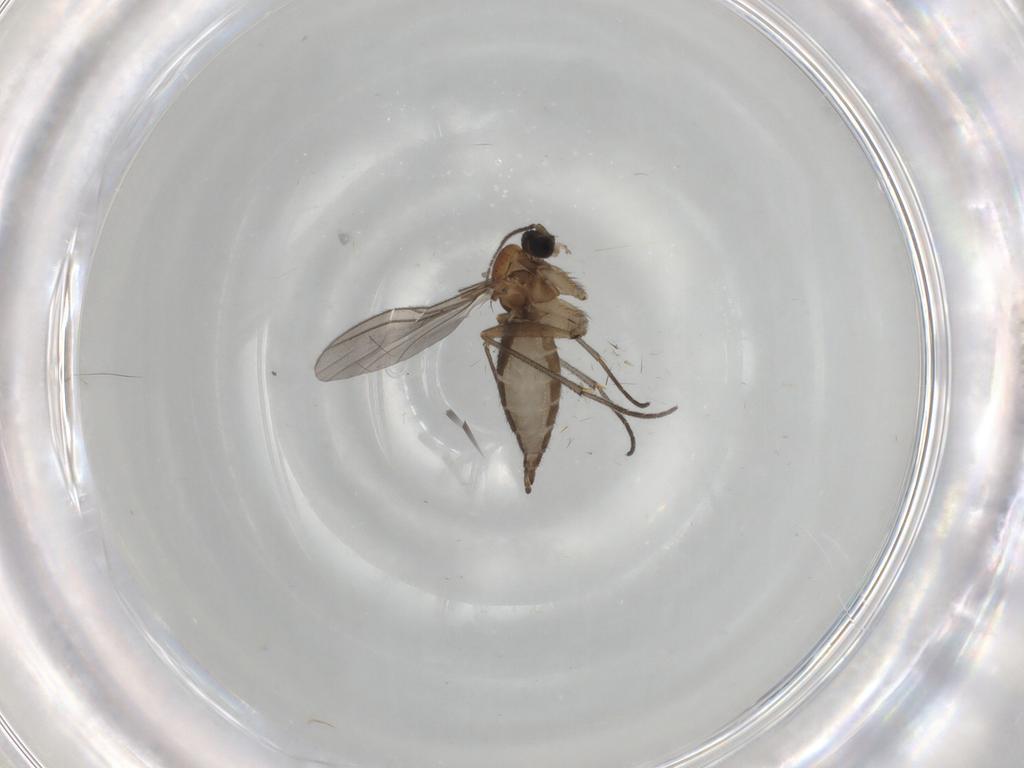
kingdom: Animalia
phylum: Arthropoda
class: Insecta
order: Diptera
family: Sciaridae
